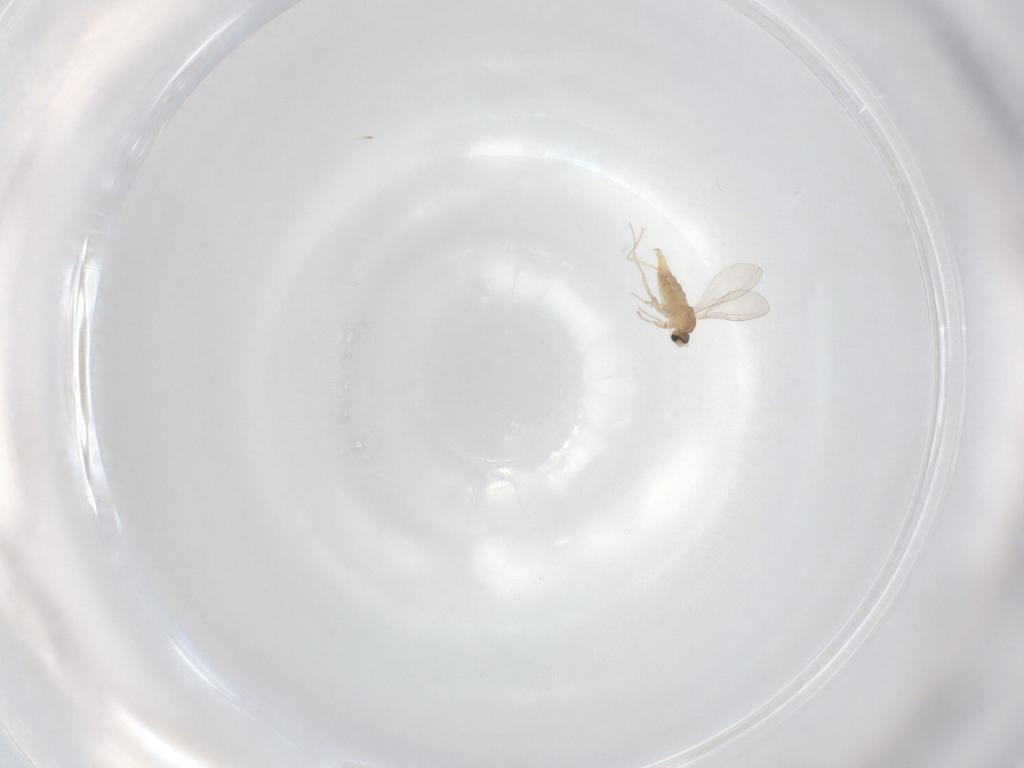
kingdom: Animalia
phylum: Arthropoda
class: Insecta
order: Diptera
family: Cecidomyiidae
